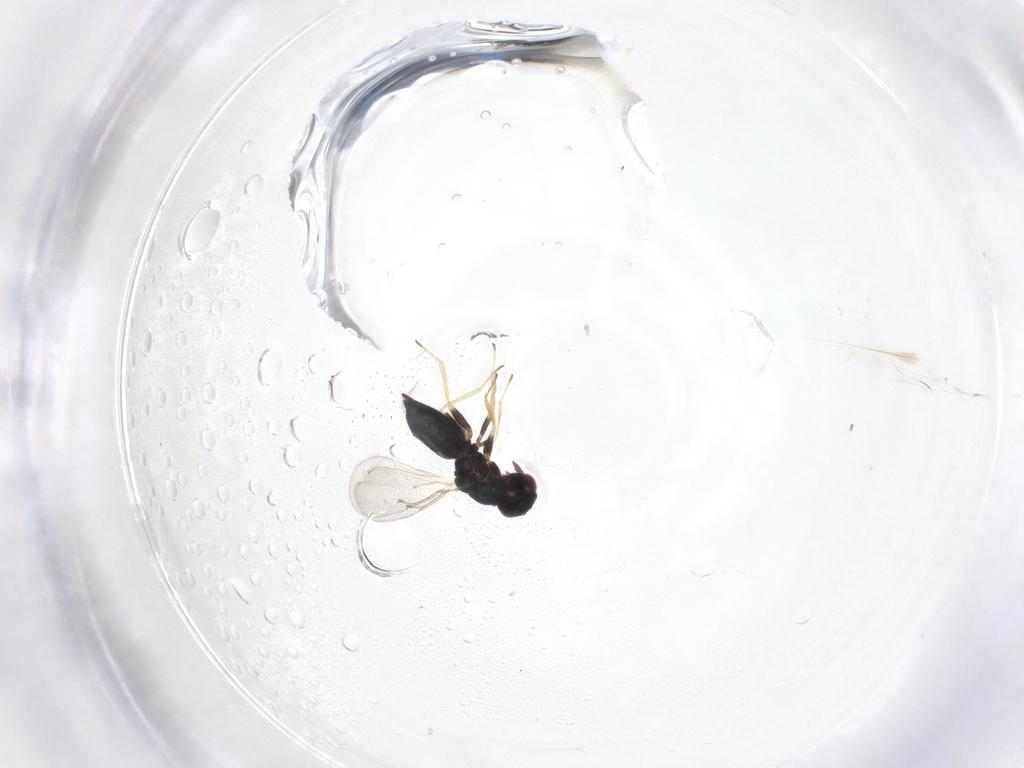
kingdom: Animalia
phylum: Arthropoda
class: Insecta
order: Hymenoptera
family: Eulophidae
